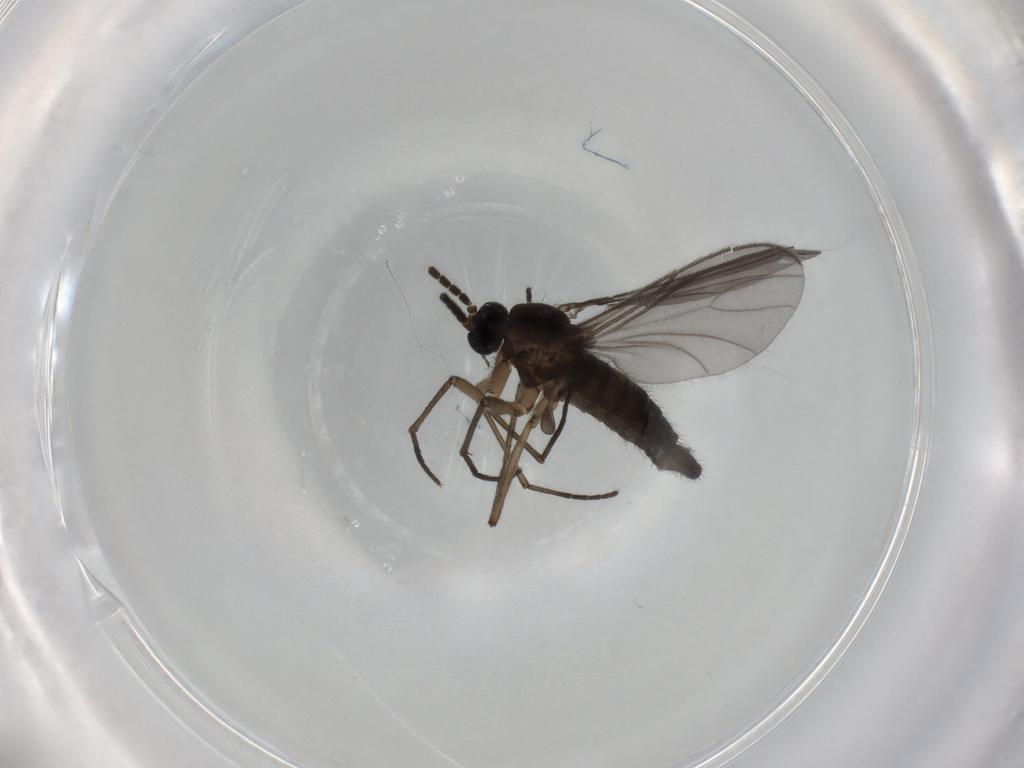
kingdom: Animalia
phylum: Arthropoda
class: Insecta
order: Diptera
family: Sciaridae
